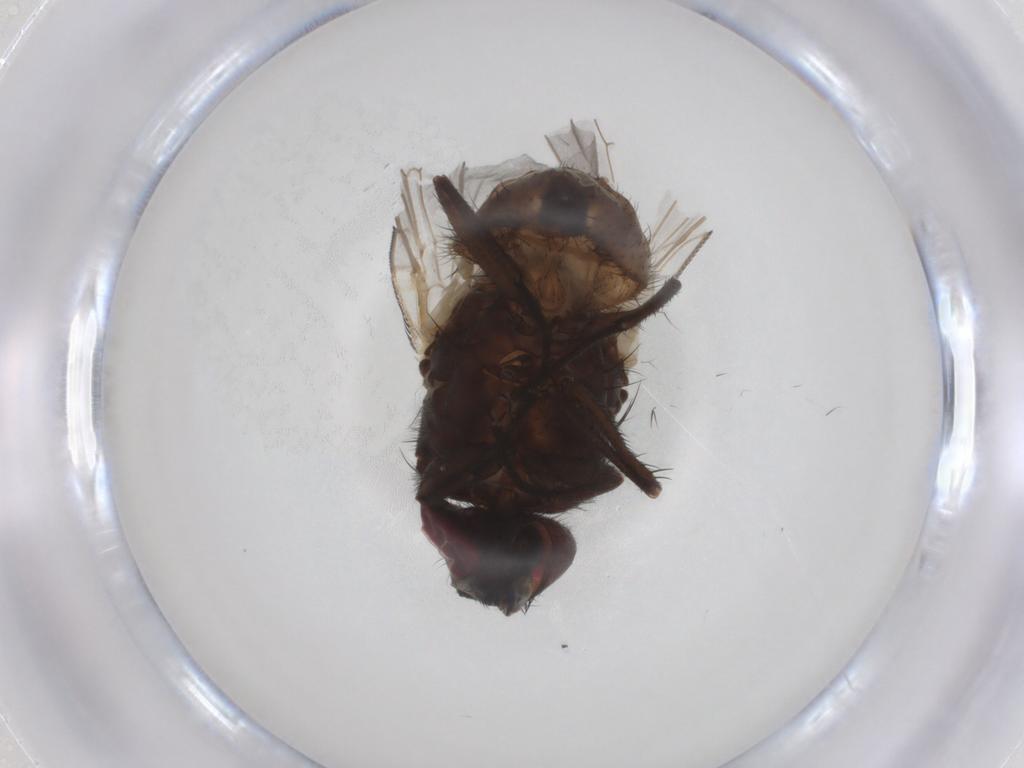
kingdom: Animalia
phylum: Arthropoda
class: Insecta
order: Diptera
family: Muscidae
